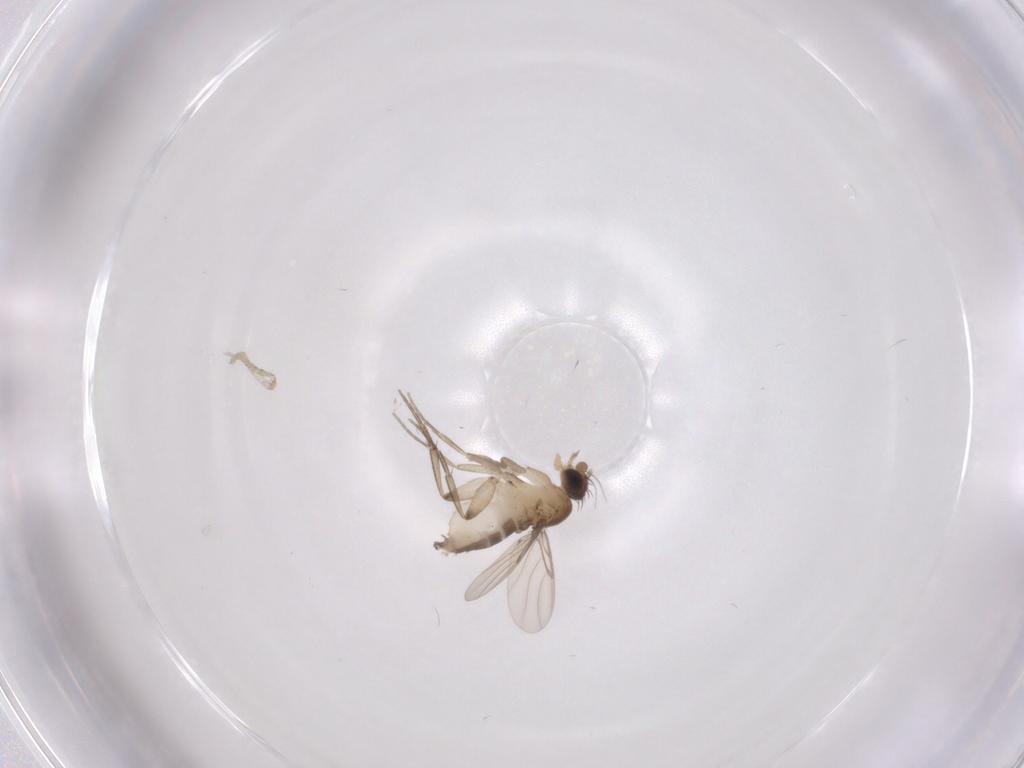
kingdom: Animalia
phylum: Arthropoda
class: Insecta
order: Diptera
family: Phoridae
